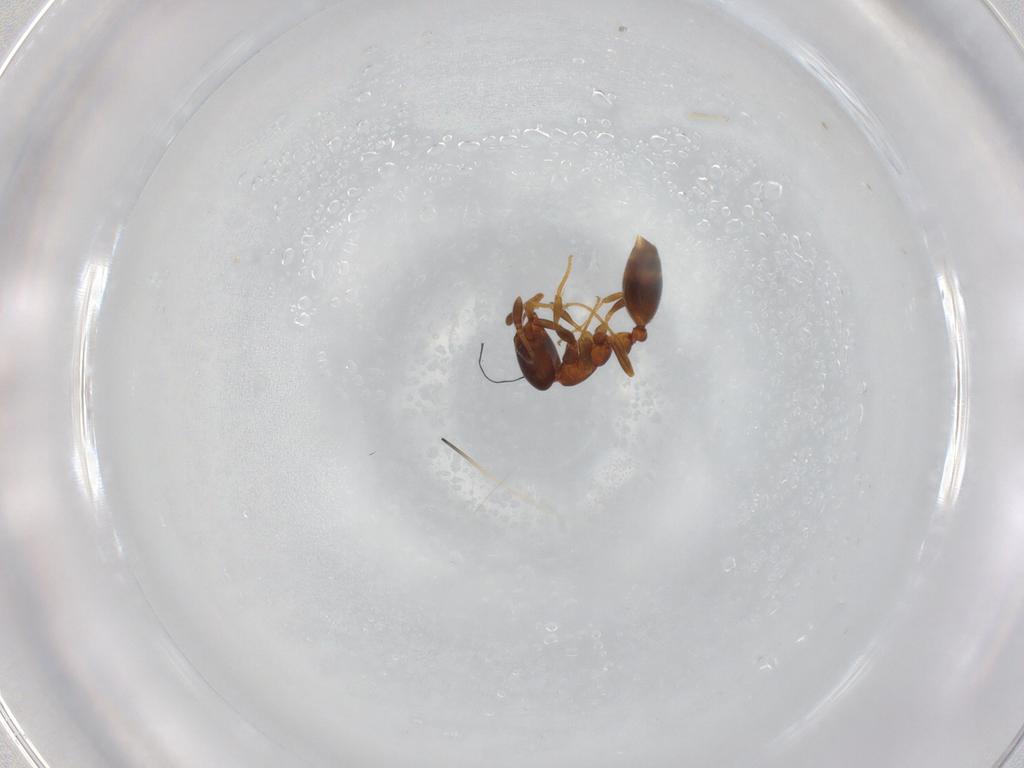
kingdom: Animalia
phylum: Arthropoda
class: Insecta
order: Hymenoptera
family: Formicidae
